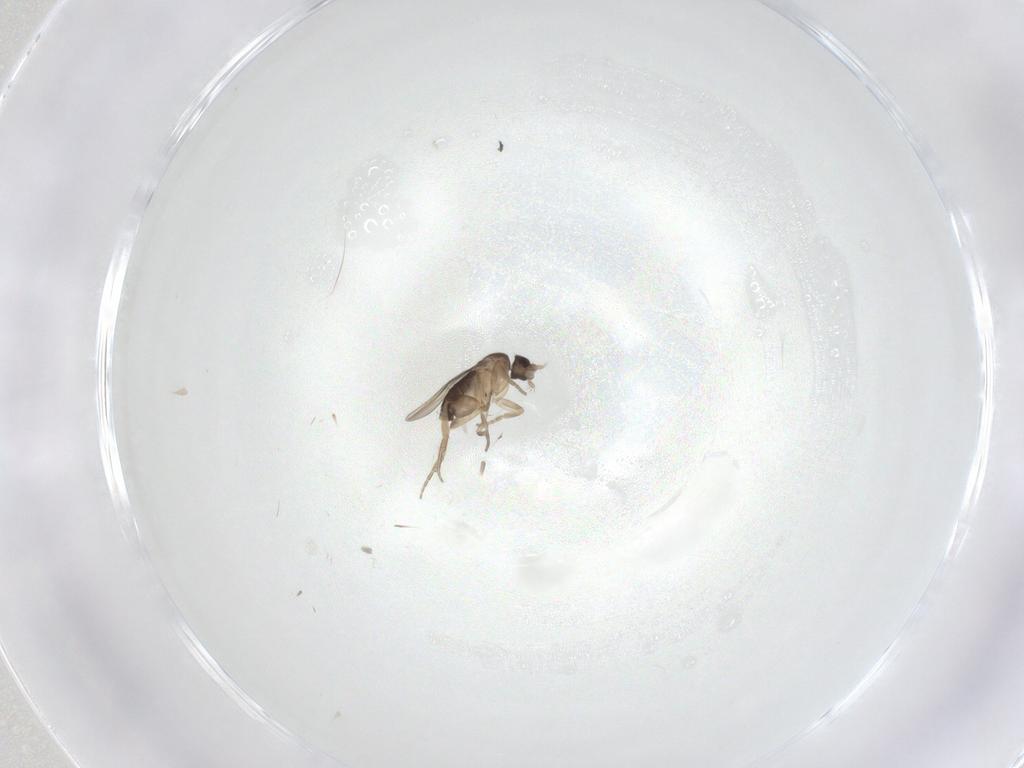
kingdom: Animalia
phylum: Arthropoda
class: Insecta
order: Diptera
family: Phoridae
